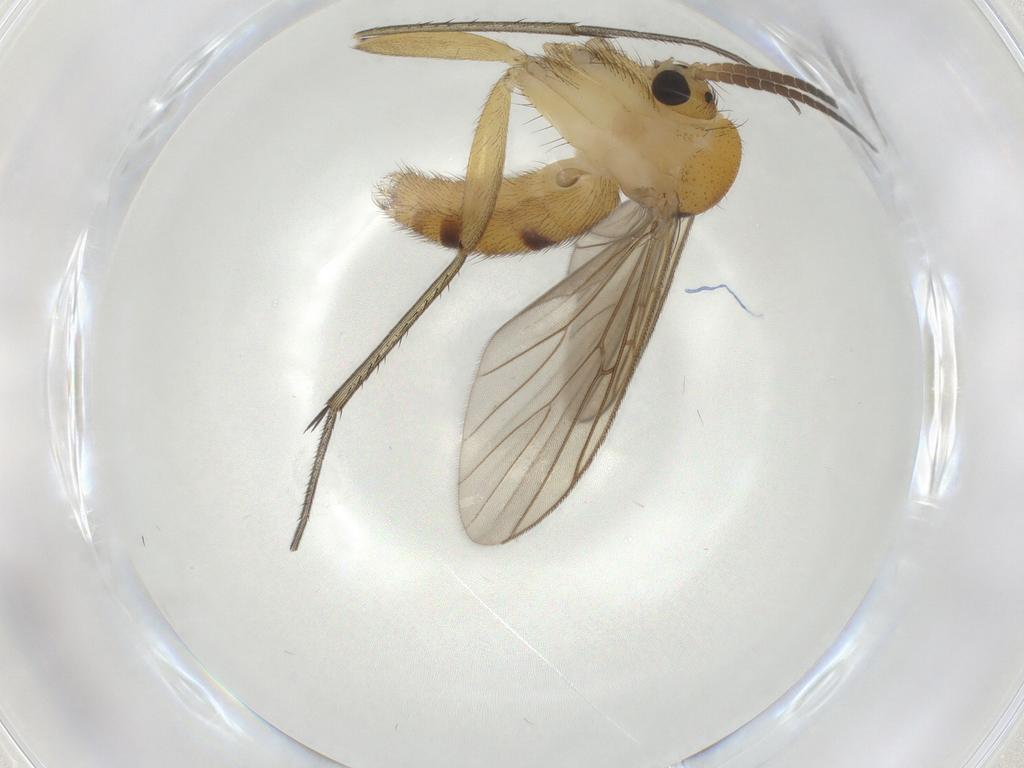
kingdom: Animalia
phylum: Arthropoda
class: Insecta
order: Diptera
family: Tachinidae
